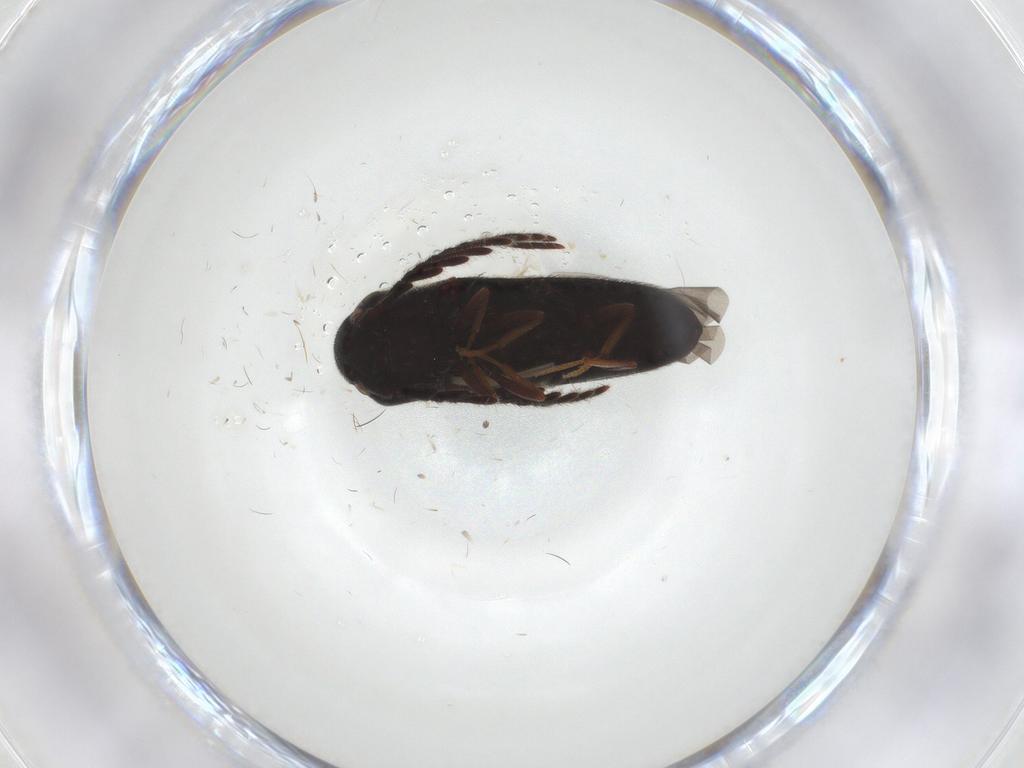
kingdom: Animalia
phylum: Arthropoda
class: Insecta
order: Coleoptera
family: Eucnemidae
